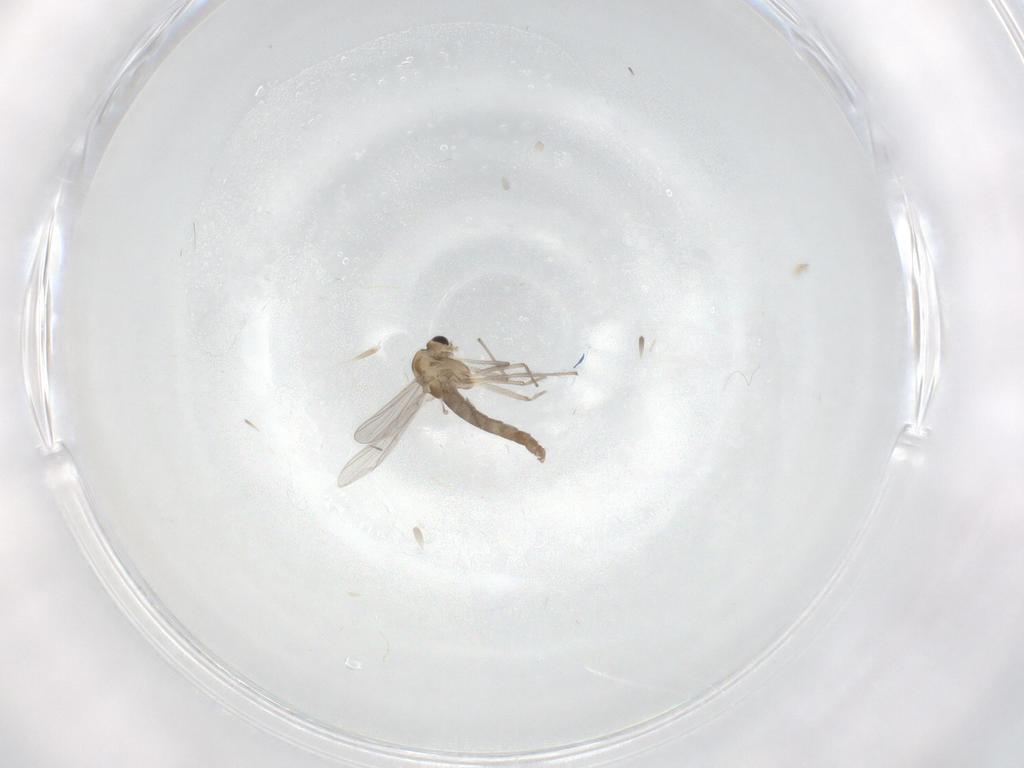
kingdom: Animalia
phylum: Arthropoda
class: Insecta
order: Diptera
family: Chironomidae
